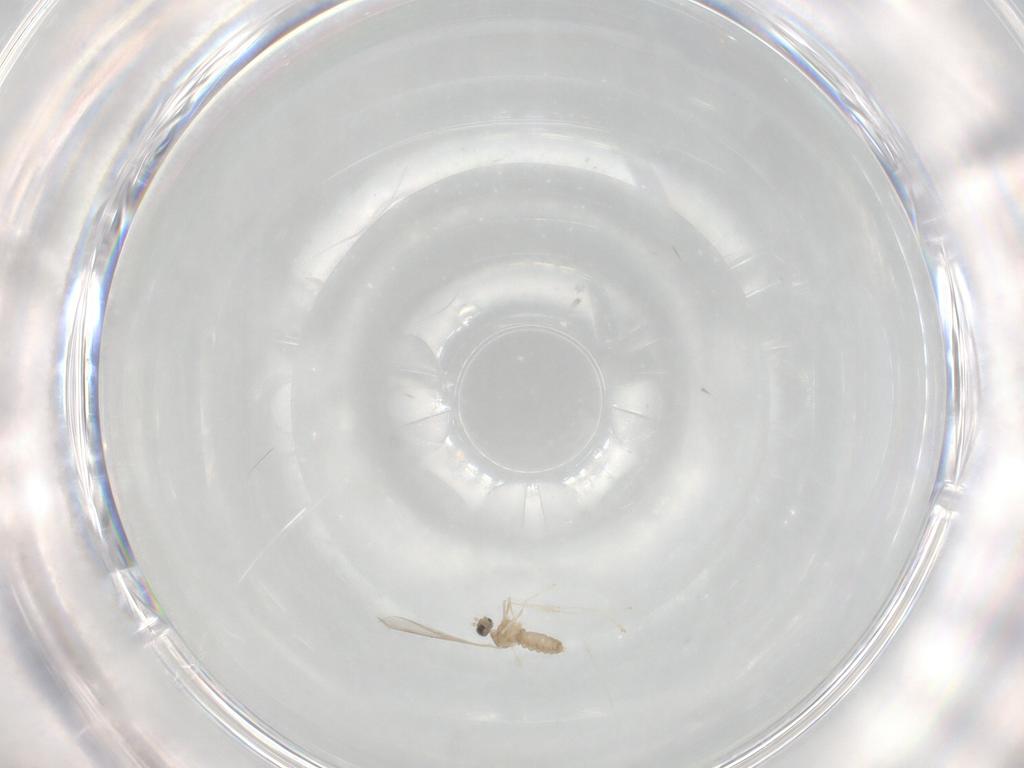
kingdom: Animalia
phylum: Arthropoda
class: Insecta
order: Diptera
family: Cecidomyiidae
